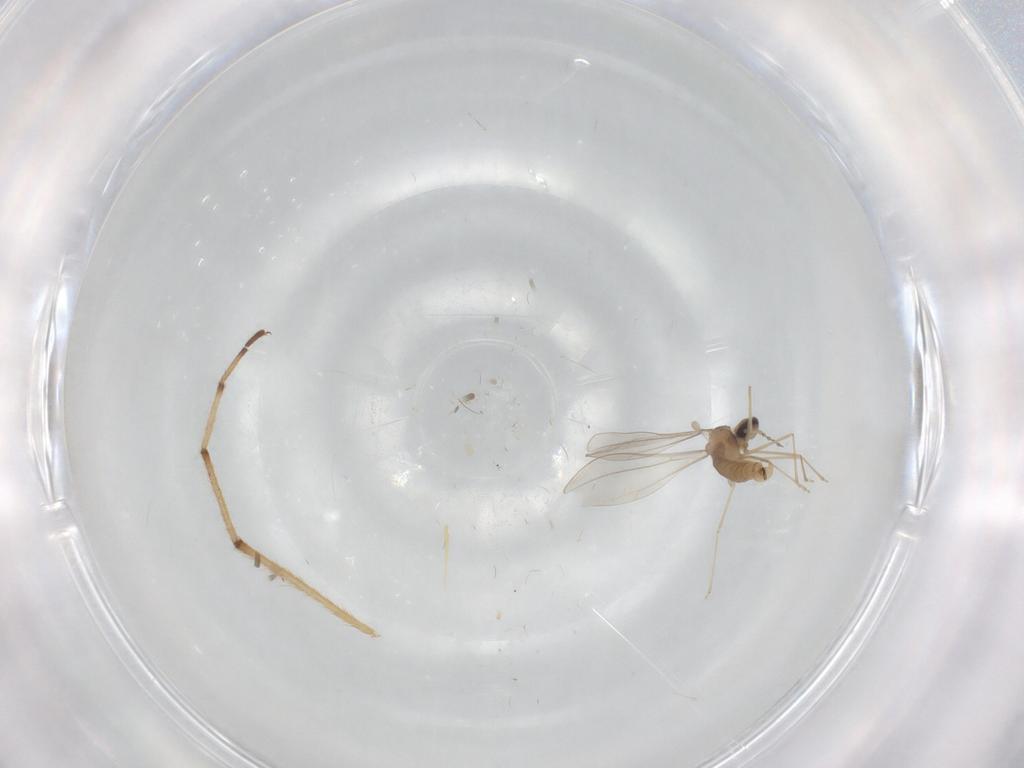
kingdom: Animalia
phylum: Arthropoda
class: Insecta
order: Diptera
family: Chironomidae
